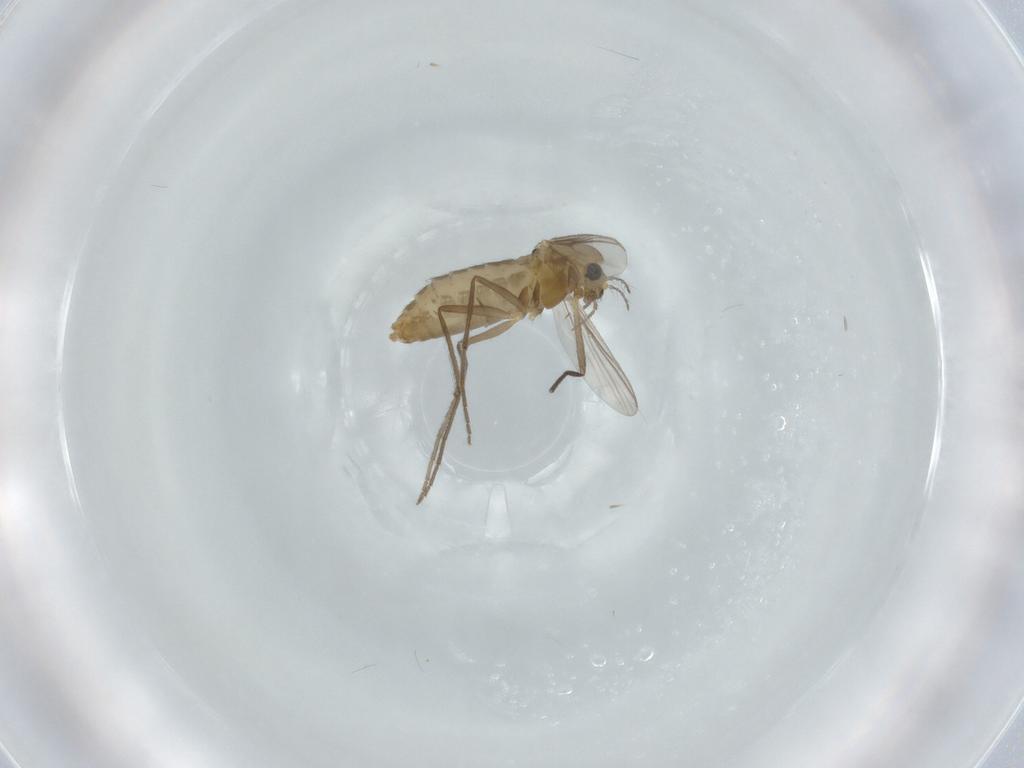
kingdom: Animalia
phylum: Arthropoda
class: Insecta
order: Diptera
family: Chironomidae
